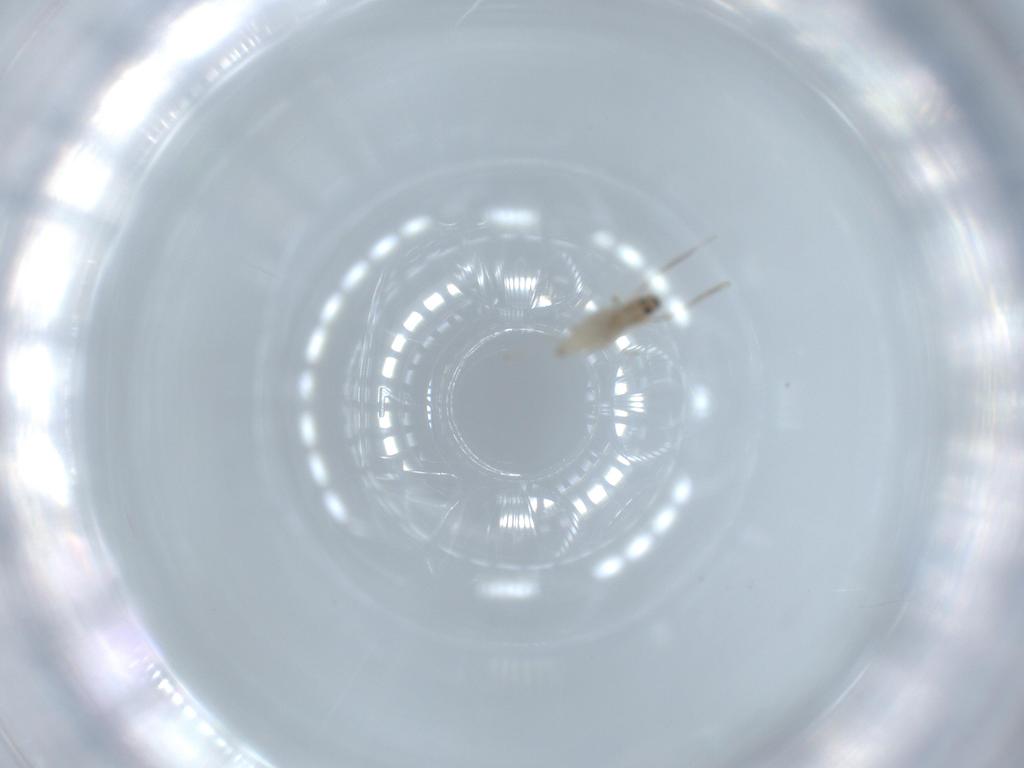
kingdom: Animalia
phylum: Arthropoda
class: Insecta
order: Diptera
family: Cecidomyiidae
